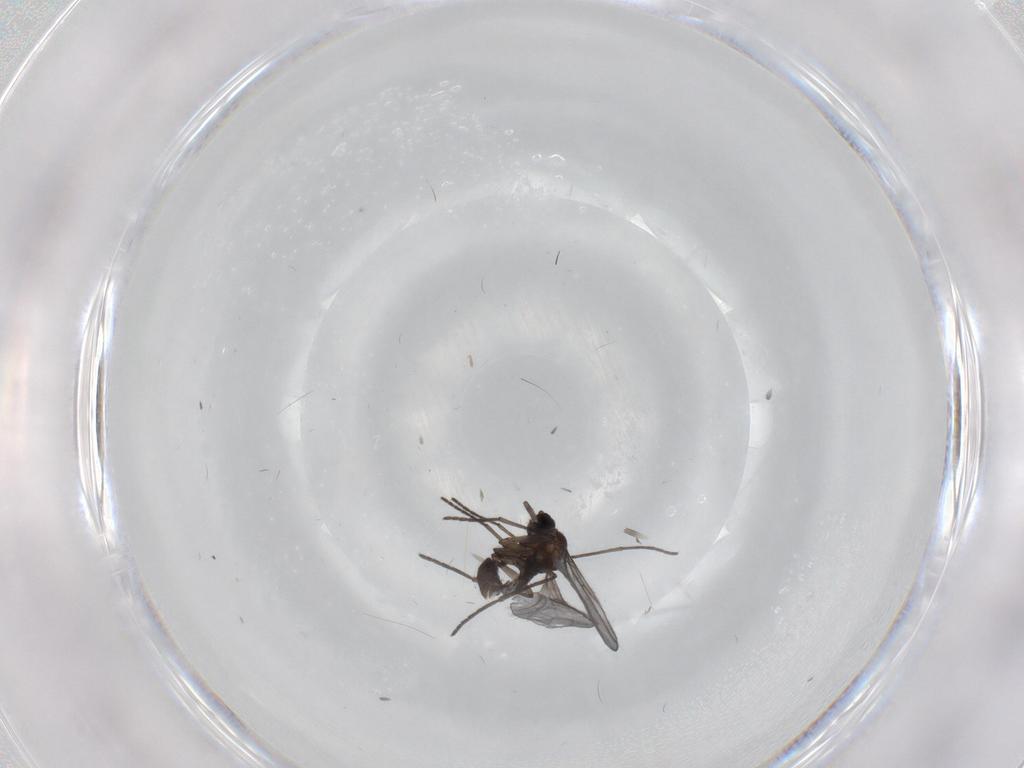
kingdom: Animalia
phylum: Arthropoda
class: Insecta
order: Diptera
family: Sciaridae
